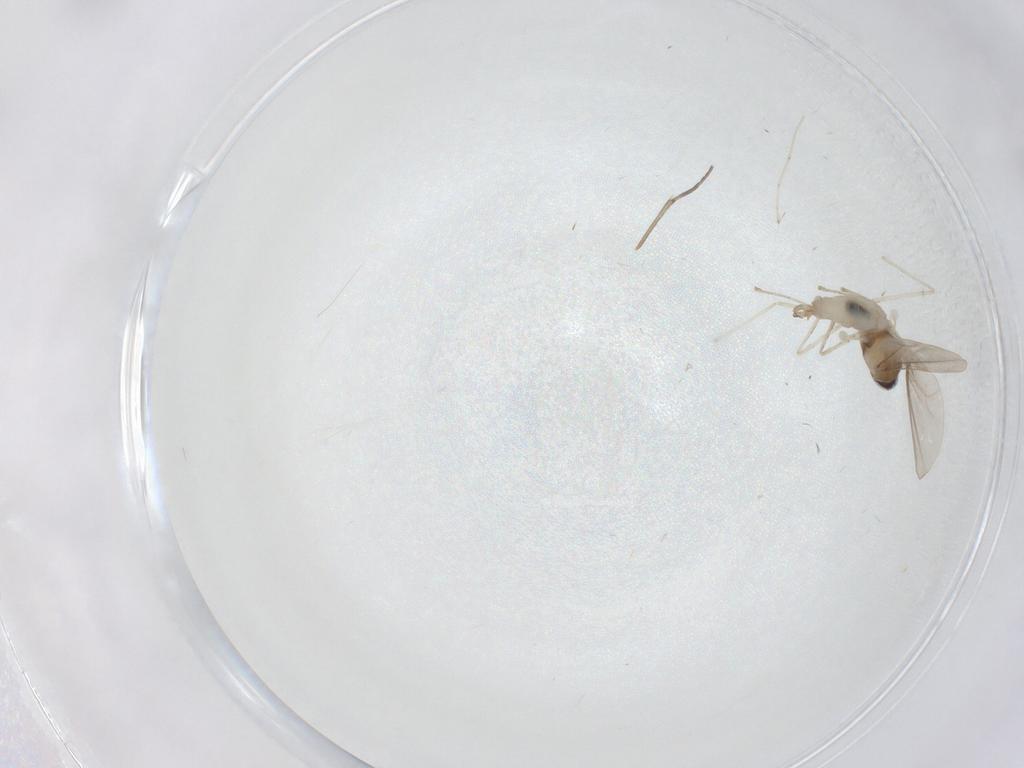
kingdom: Animalia
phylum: Arthropoda
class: Insecta
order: Diptera
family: Sciaridae
